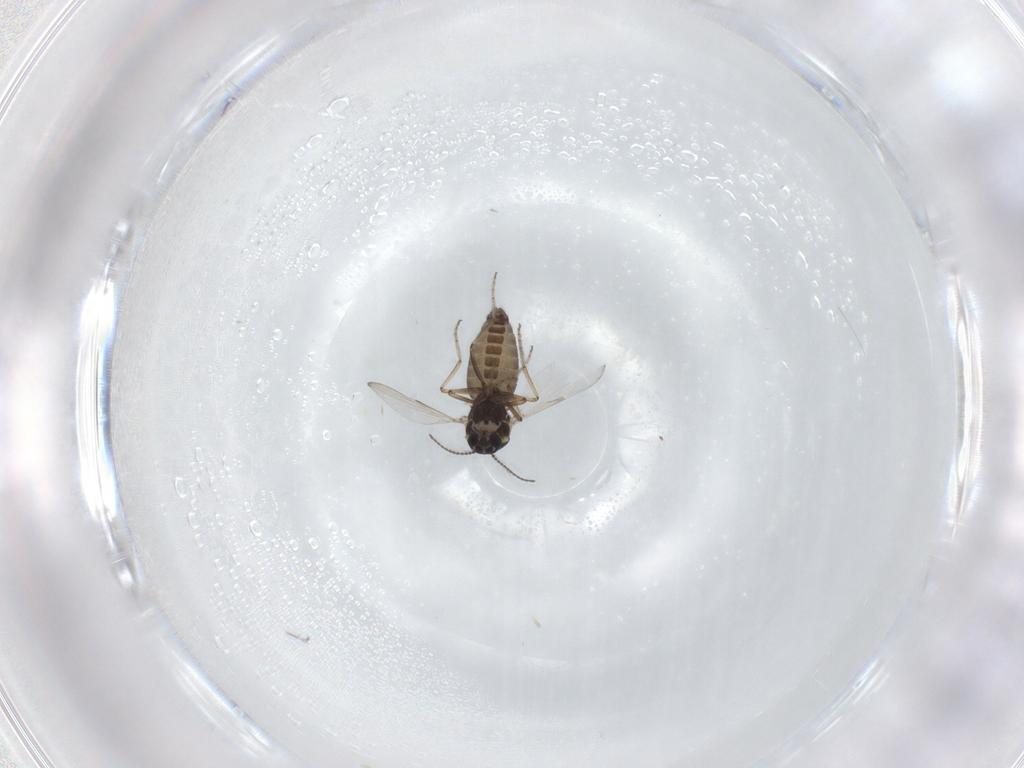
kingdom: Animalia
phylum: Arthropoda
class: Insecta
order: Diptera
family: Ceratopogonidae
